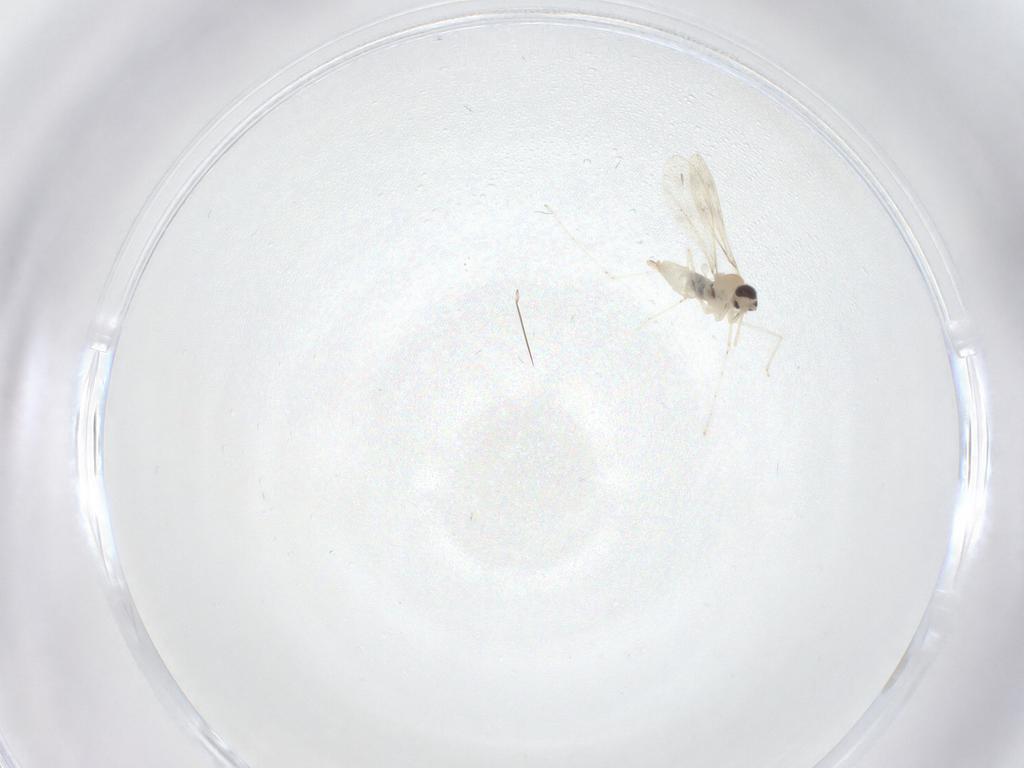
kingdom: Animalia
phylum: Arthropoda
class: Insecta
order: Diptera
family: Cecidomyiidae
